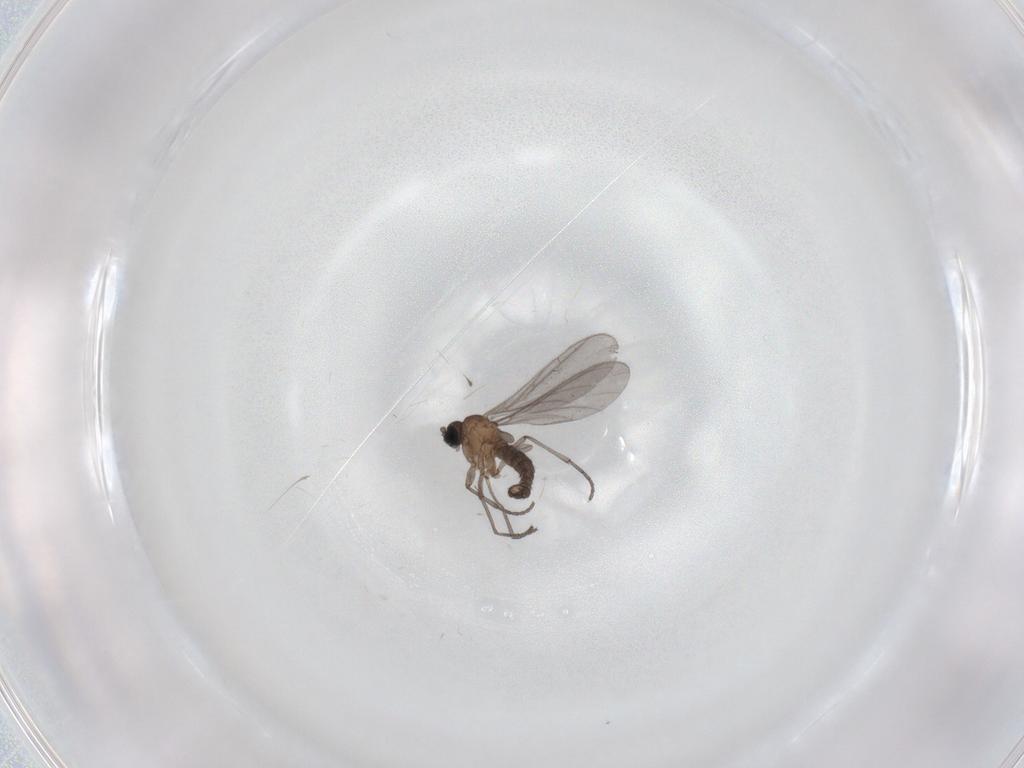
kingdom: Animalia
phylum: Arthropoda
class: Insecta
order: Diptera
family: Sciaridae
